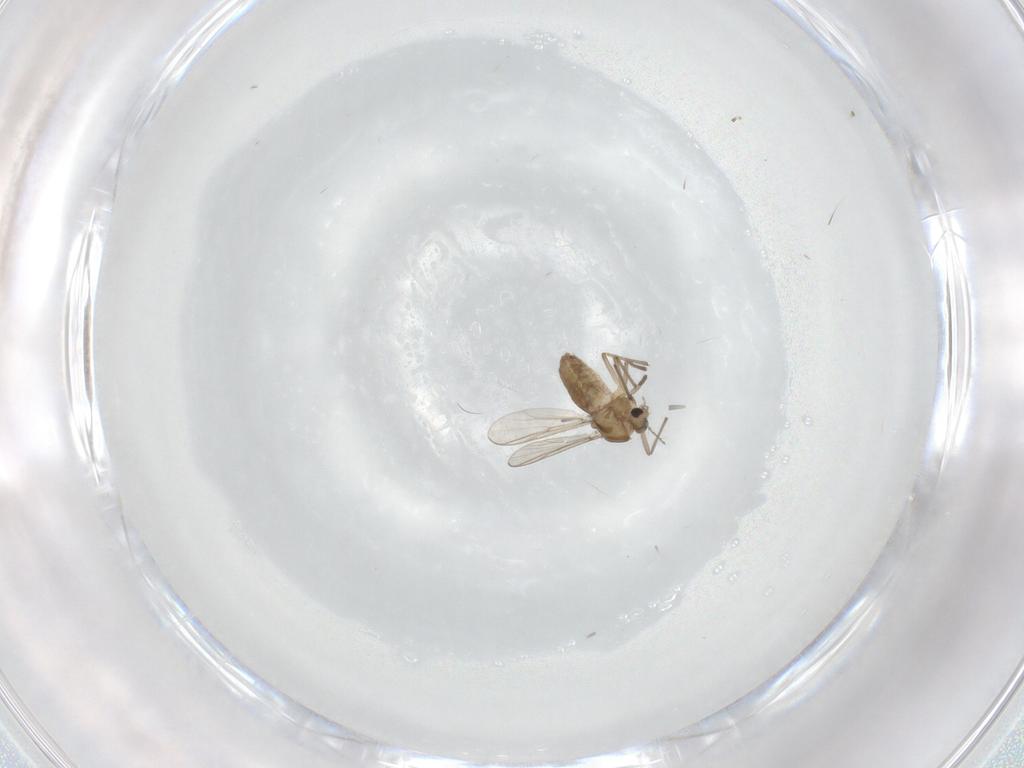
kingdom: Animalia
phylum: Arthropoda
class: Insecta
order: Diptera
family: Chironomidae
